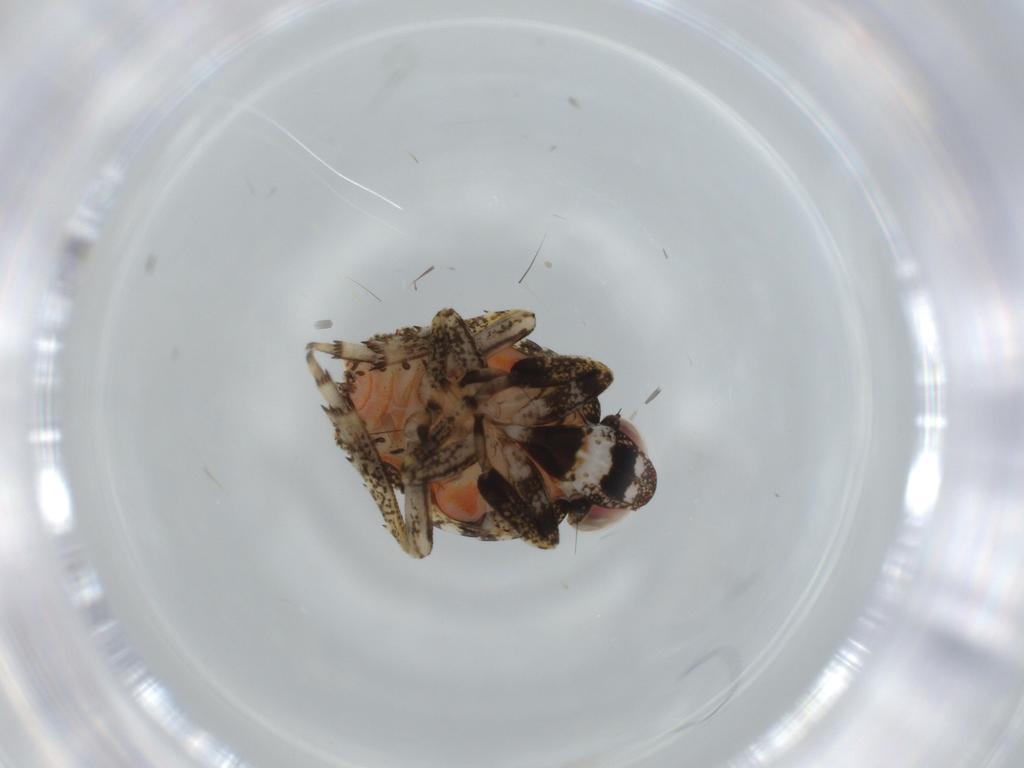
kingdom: Animalia
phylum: Arthropoda
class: Insecta
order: Hemiptera
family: Issidae
